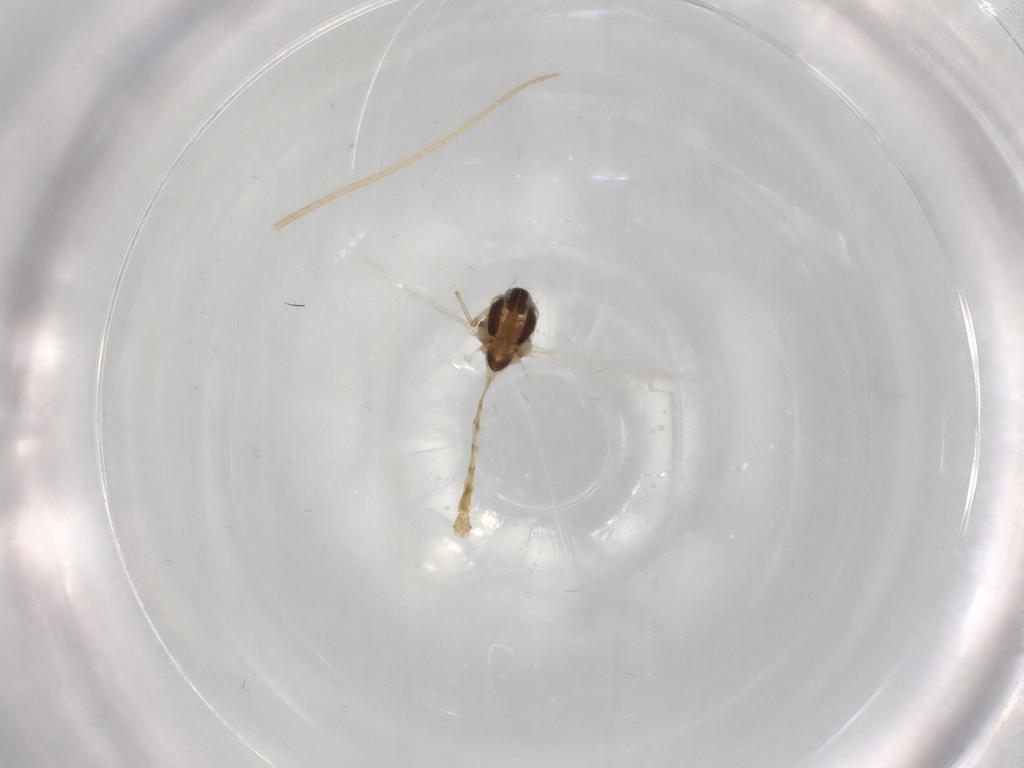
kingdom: Animalia
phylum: Arthropoda
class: Insecta
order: Diptera
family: Chironomidae
